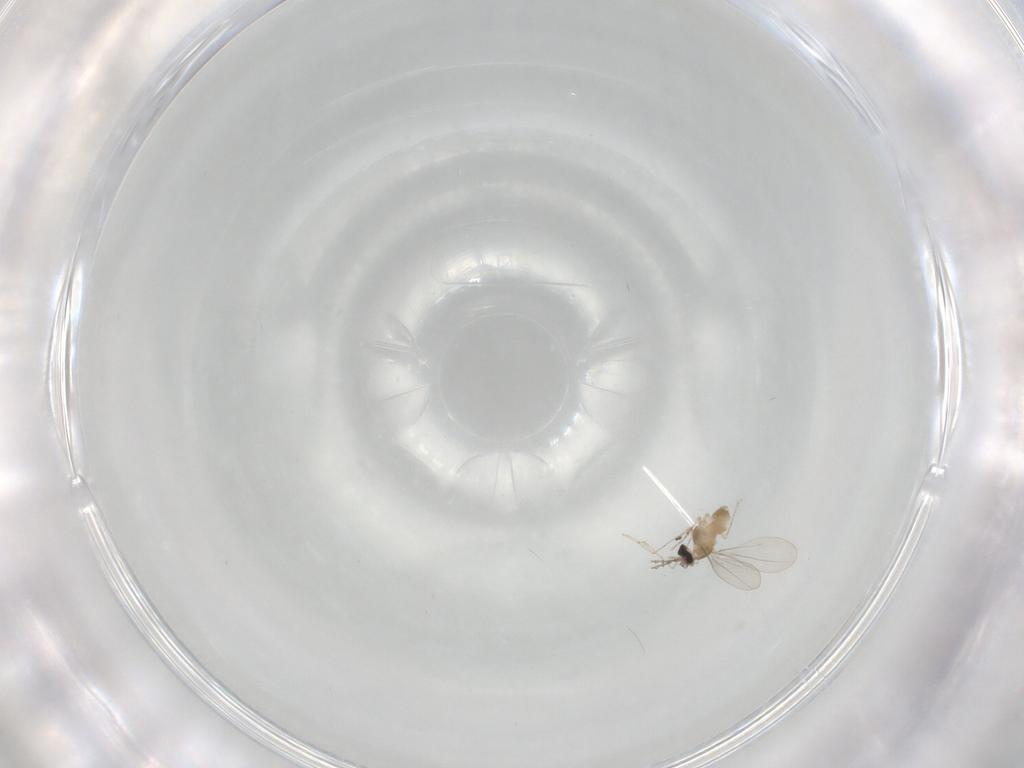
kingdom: Animalia
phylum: Arthropoda
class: Insecta
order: Diptera
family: Cecidomyiidae
